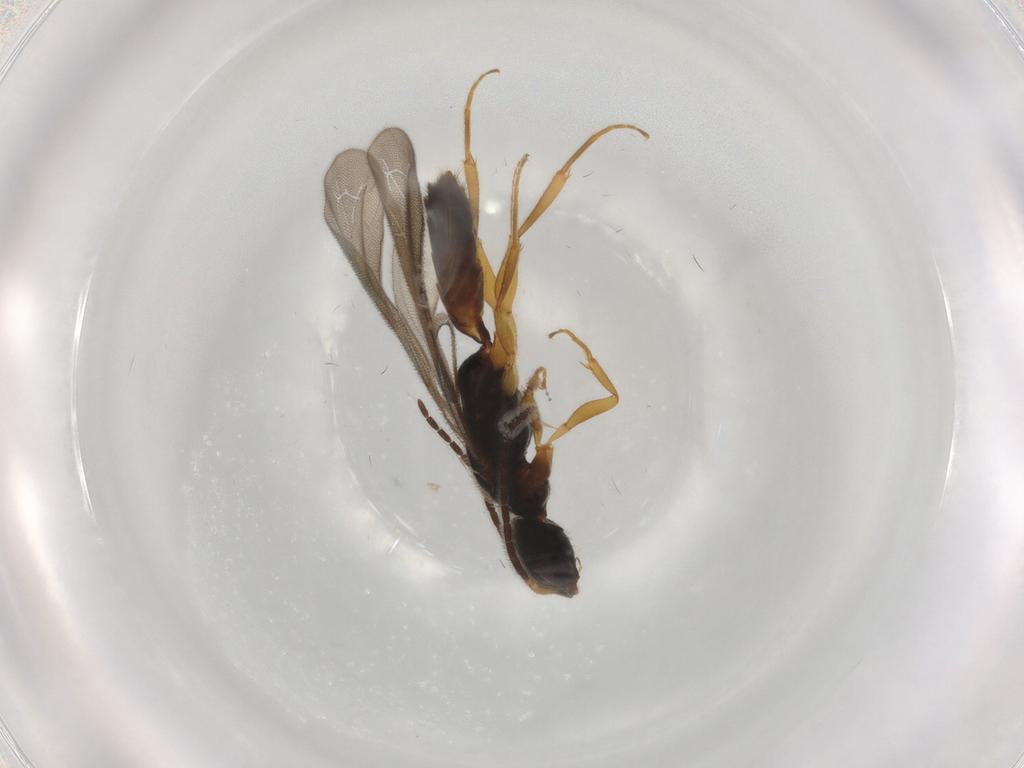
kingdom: Animalia
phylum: Arthropoda
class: Insecta
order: Hymenoptera
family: Bethylidae
